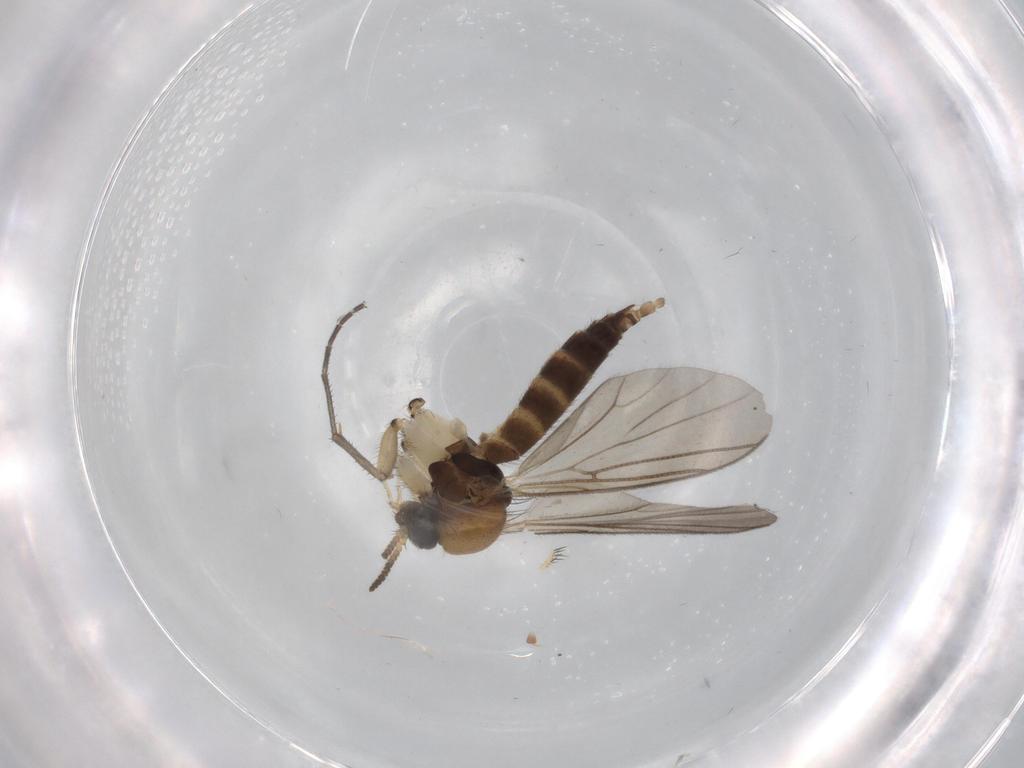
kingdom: Animalia
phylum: Arthropoda
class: Insecta
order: Diptera
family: Mycetophilidae
